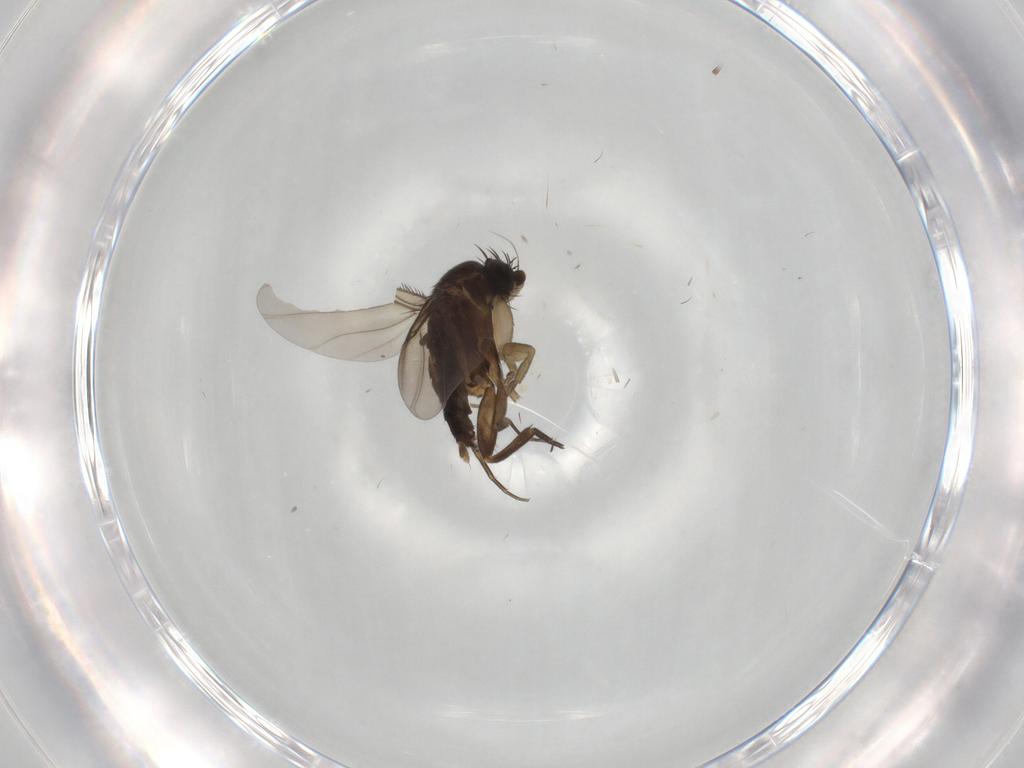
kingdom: Animalia
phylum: Arthropoda
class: Insecta
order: Diptera
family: Phoridae
